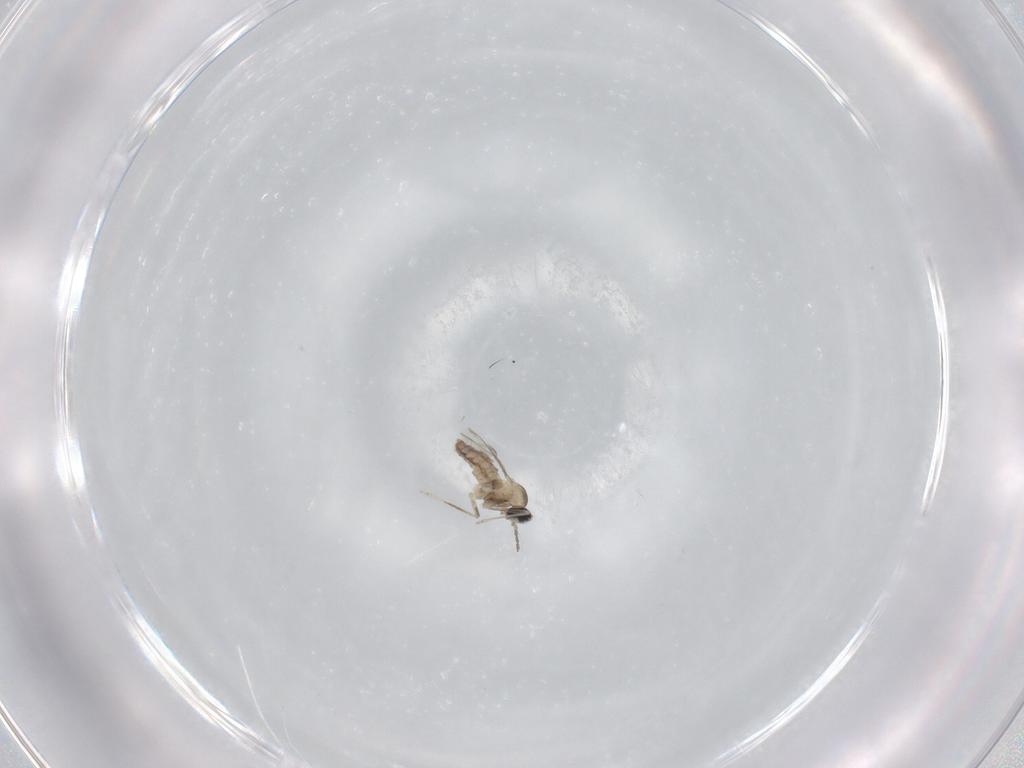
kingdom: Animalia
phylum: Arthropoda
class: Insecta
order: Diptera
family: Cecidomyiidae
